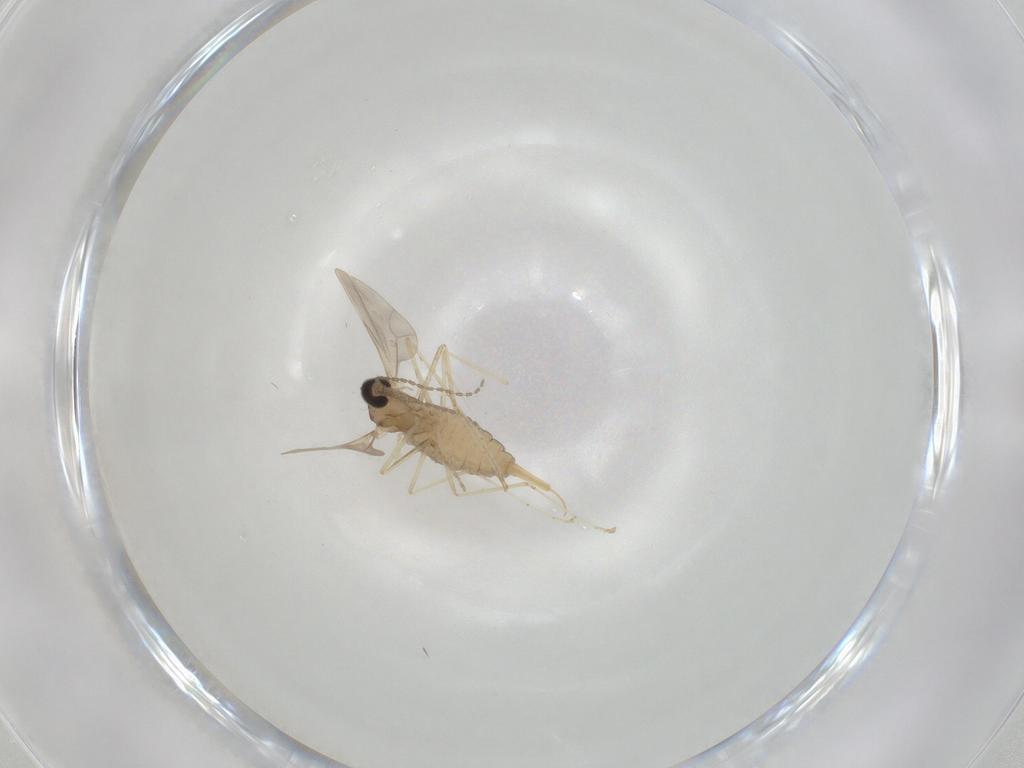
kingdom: Animalia
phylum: Arthropoda
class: Insecta
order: Diptera
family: Cecidomyiidae
